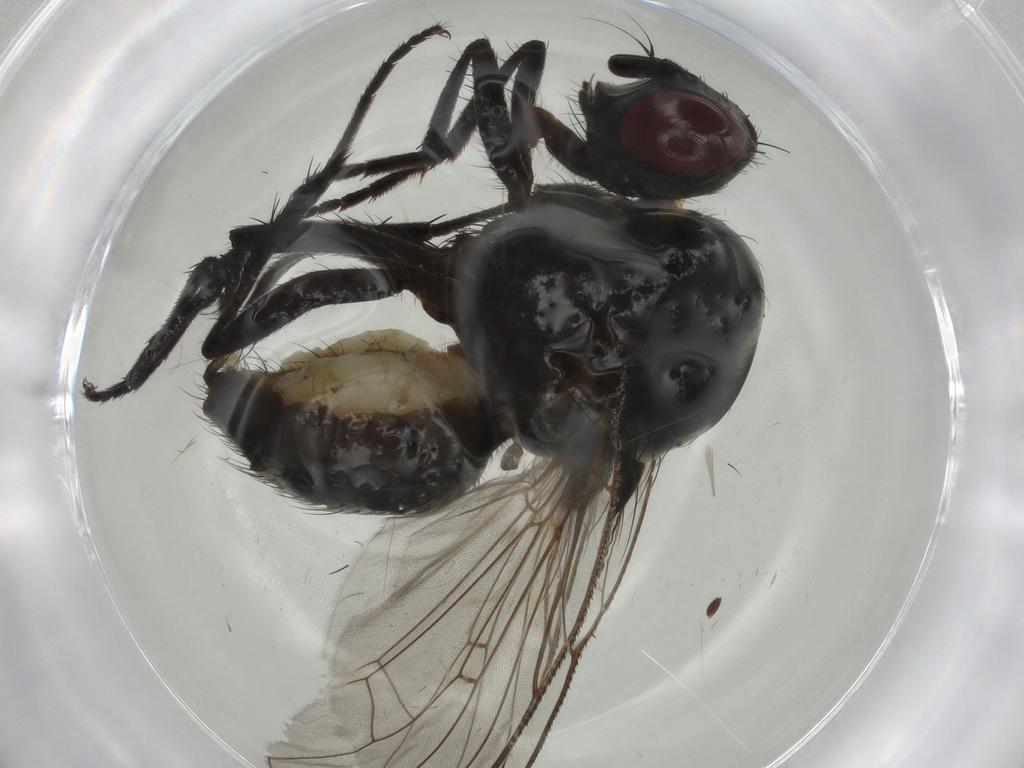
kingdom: Animalia
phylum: Arthropoda
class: Insecta
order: Diptera
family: Anthomyiidae
